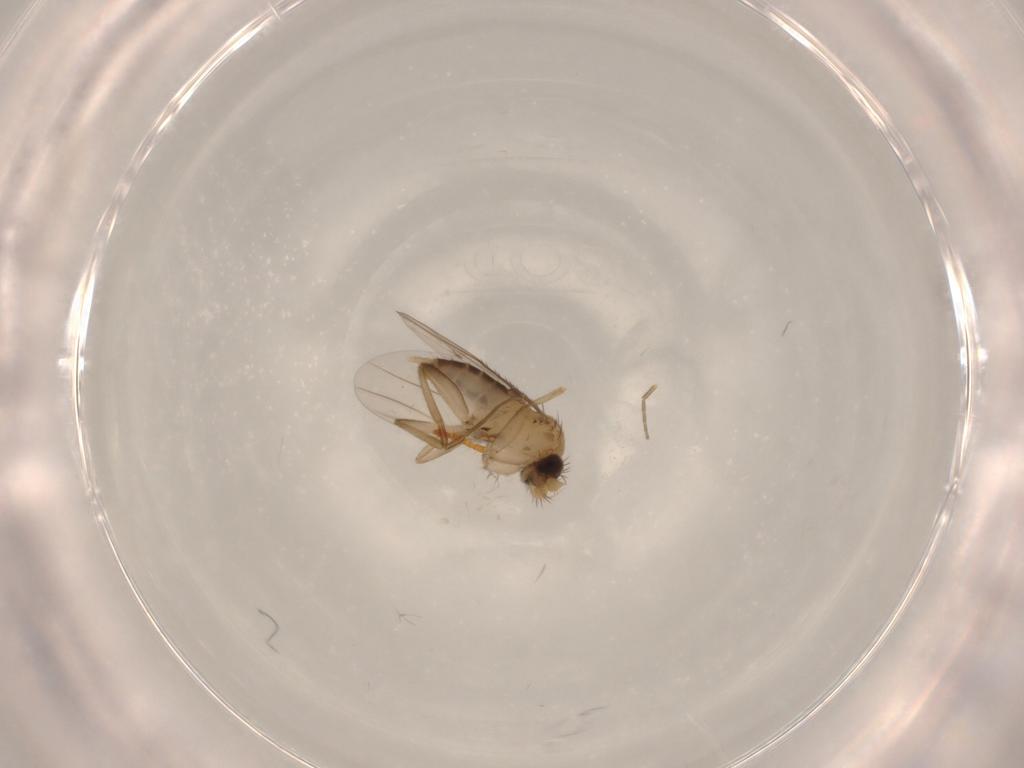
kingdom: Animalia
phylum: Arthropoda
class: Insecta
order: Diptera
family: Phoridae
